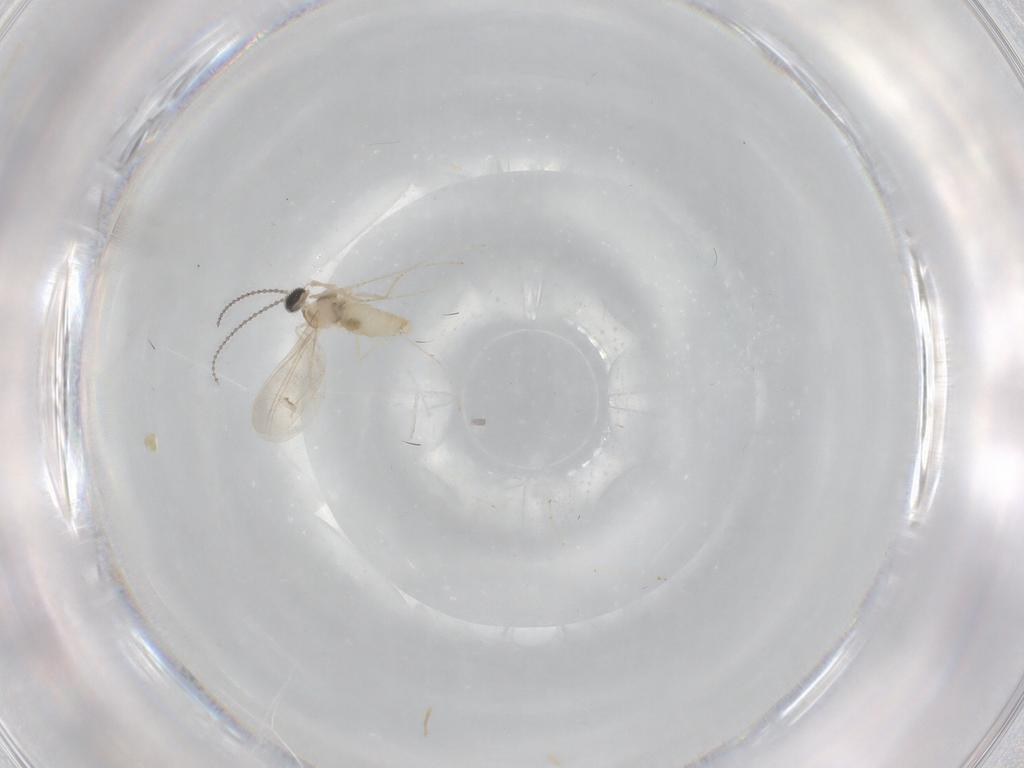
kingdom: Animalia
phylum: Arthropoda
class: Insecta
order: Diptera
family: Cecidomyiidae
